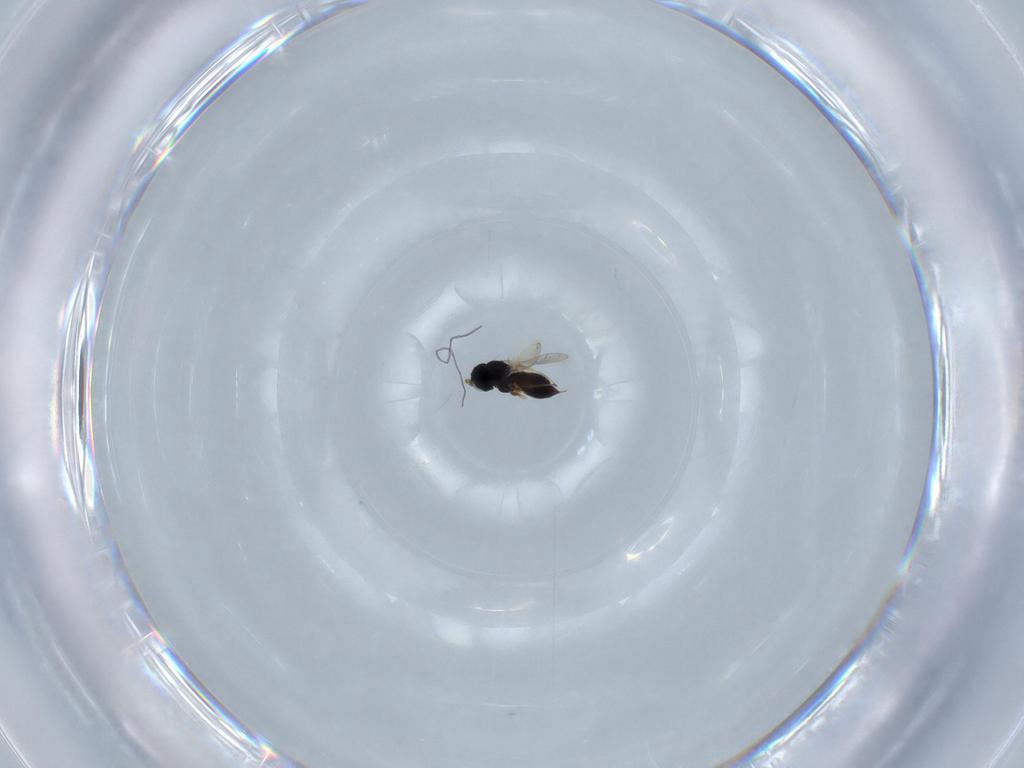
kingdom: Animalia
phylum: Arthropoda
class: Insecta
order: Hymenoptera
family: Scelionidae
